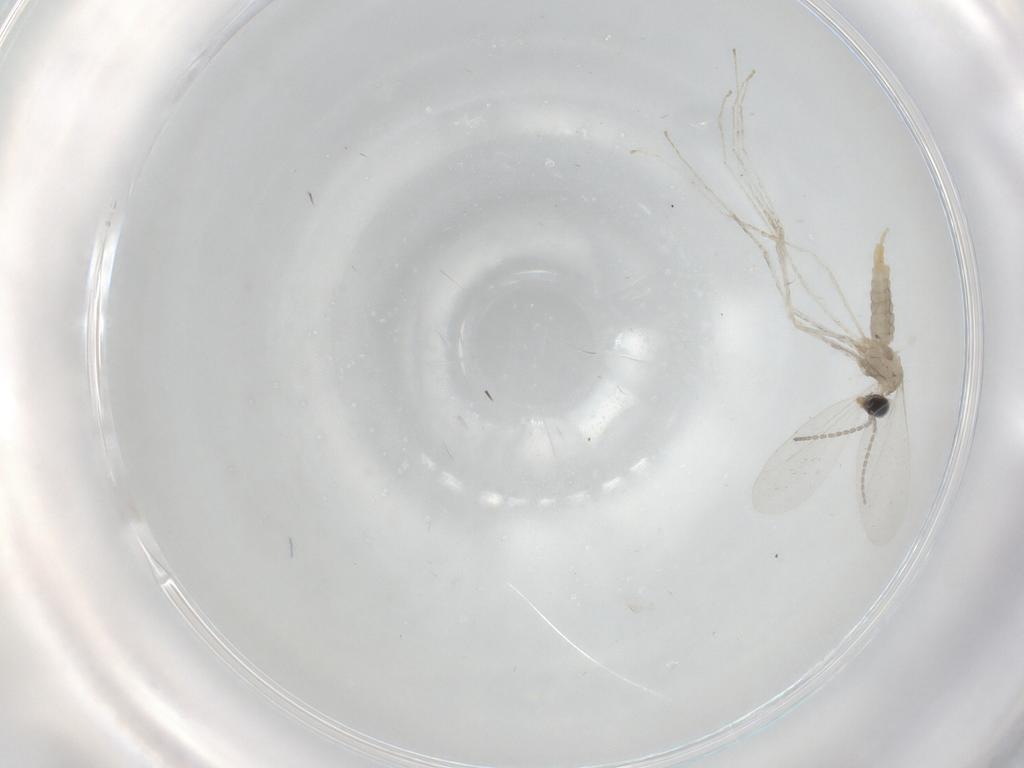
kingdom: Animalia
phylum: Arthropoda
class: Insecta
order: Diptera
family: Cecidomyiidae
